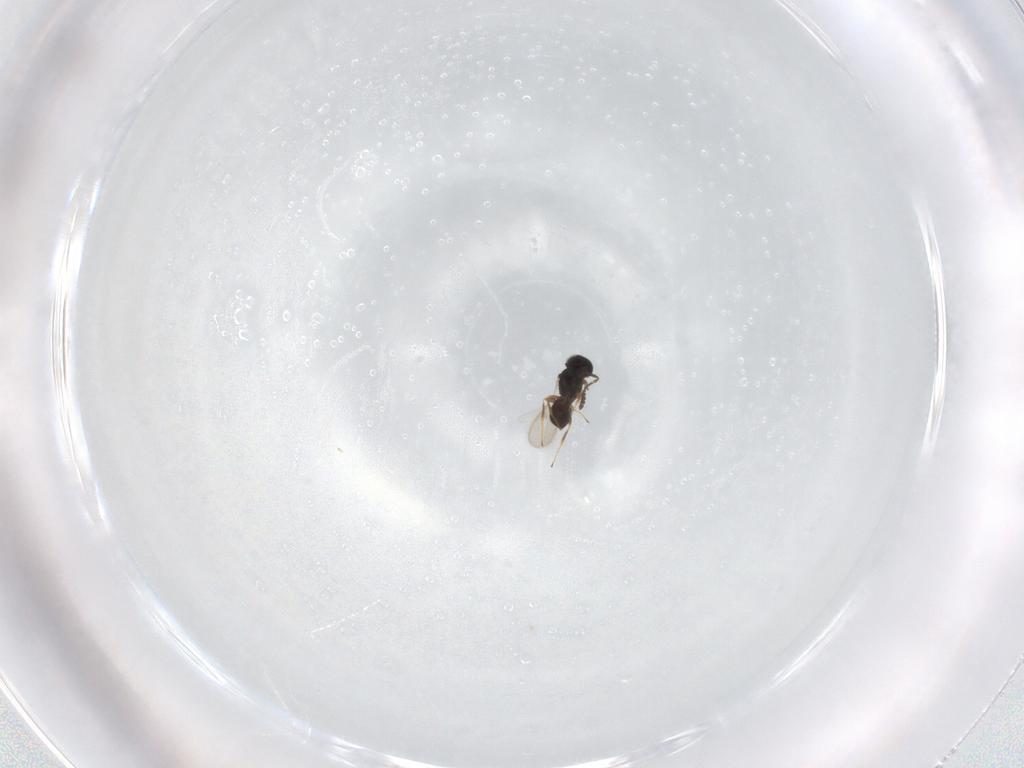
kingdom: Animalia
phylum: Arthropoda
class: Insecta
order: Hymenoptera
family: Scelionidae
